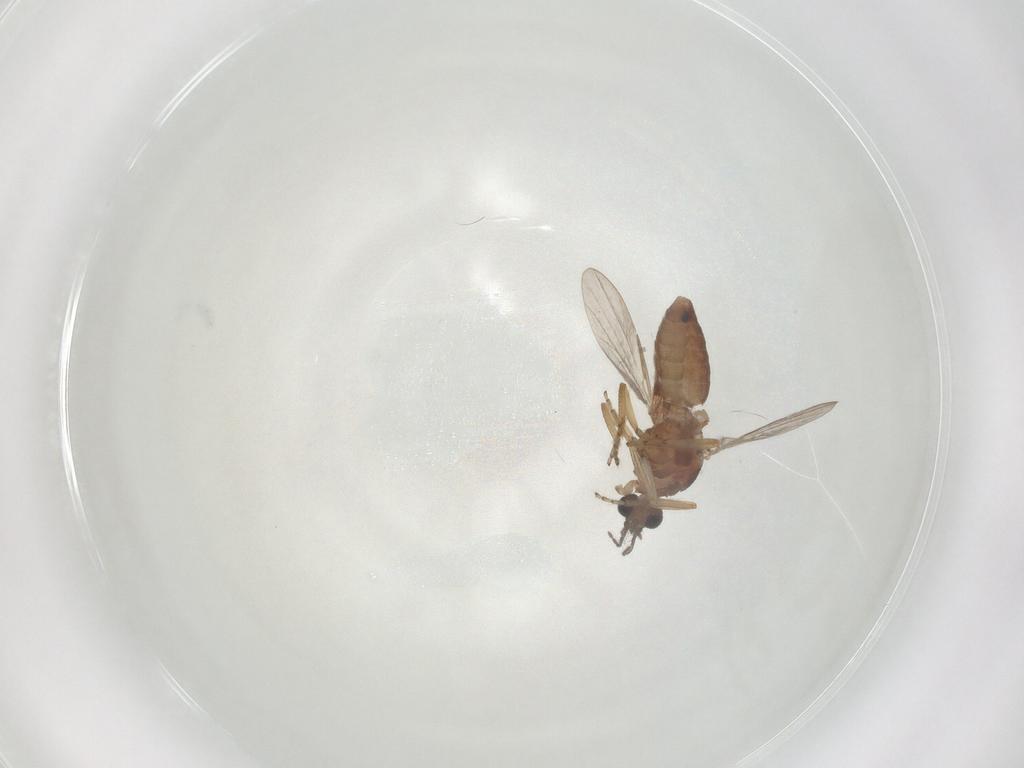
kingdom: Animalia
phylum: Arthropoda
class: Insecta
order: Diptera
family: Ceratopogonidae
